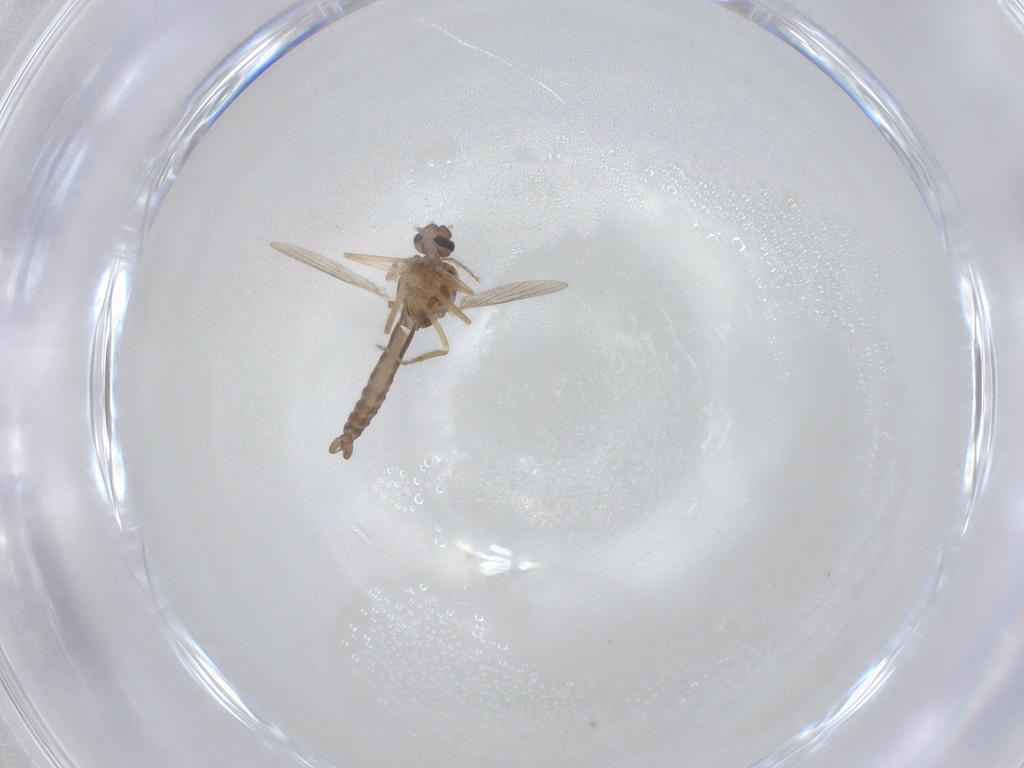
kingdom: Animalia
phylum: Arthropoda
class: Insecta
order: Diptera
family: Ceratopogonidae
